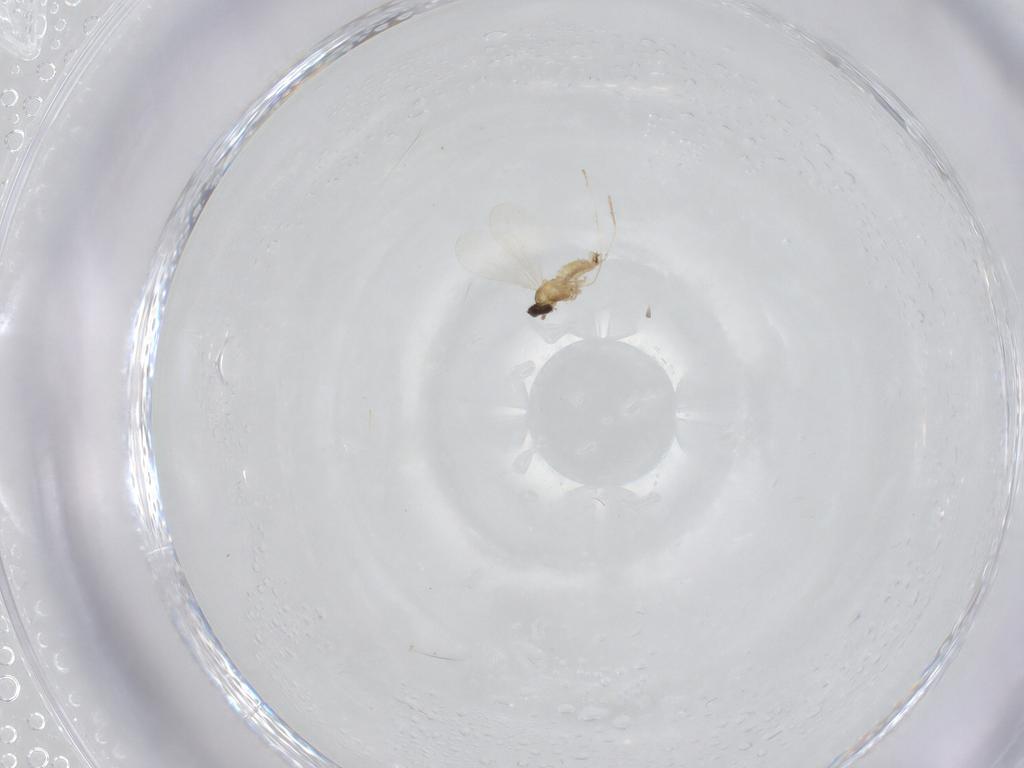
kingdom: Animalia
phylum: Arthropoda
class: Insecta
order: Diptera
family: Cecidomyiidae
